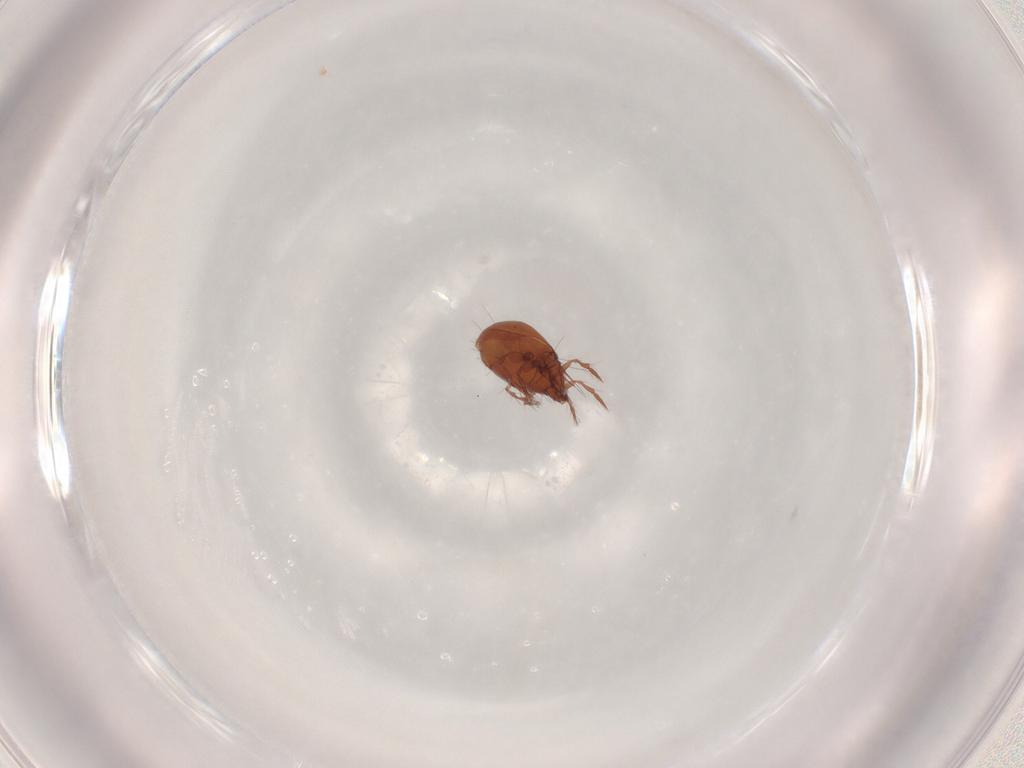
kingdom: Animalia
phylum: Arthropoda
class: Arachnida
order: Sarcoptiformes
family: Ceratoppiidae
